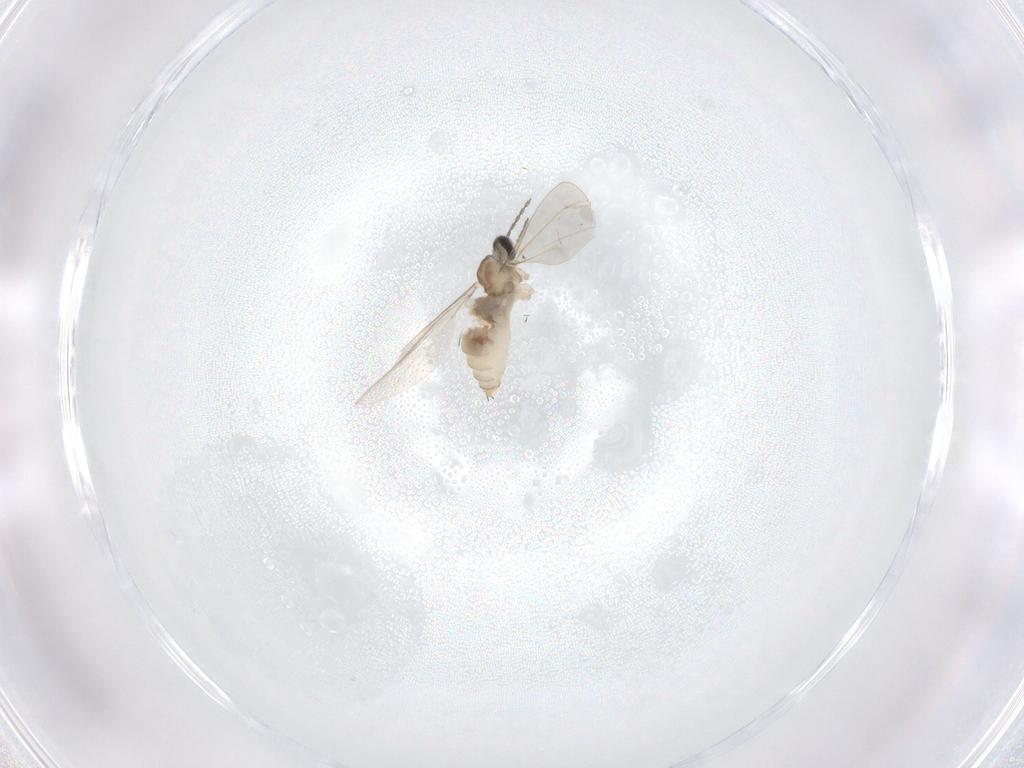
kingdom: Animalia
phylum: Arthropoda
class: Insecta
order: Diptera
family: Cecidomyiidae
